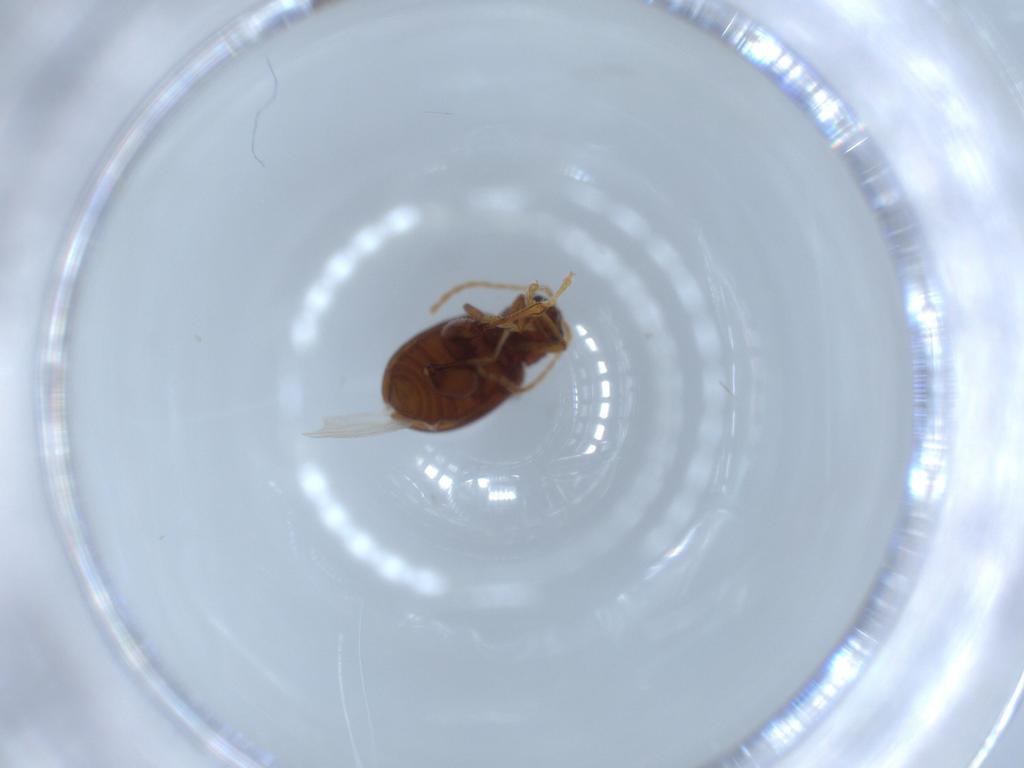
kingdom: Animalia
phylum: Arthropoda
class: Insecta
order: Coleoptera
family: Chrysomelidae
